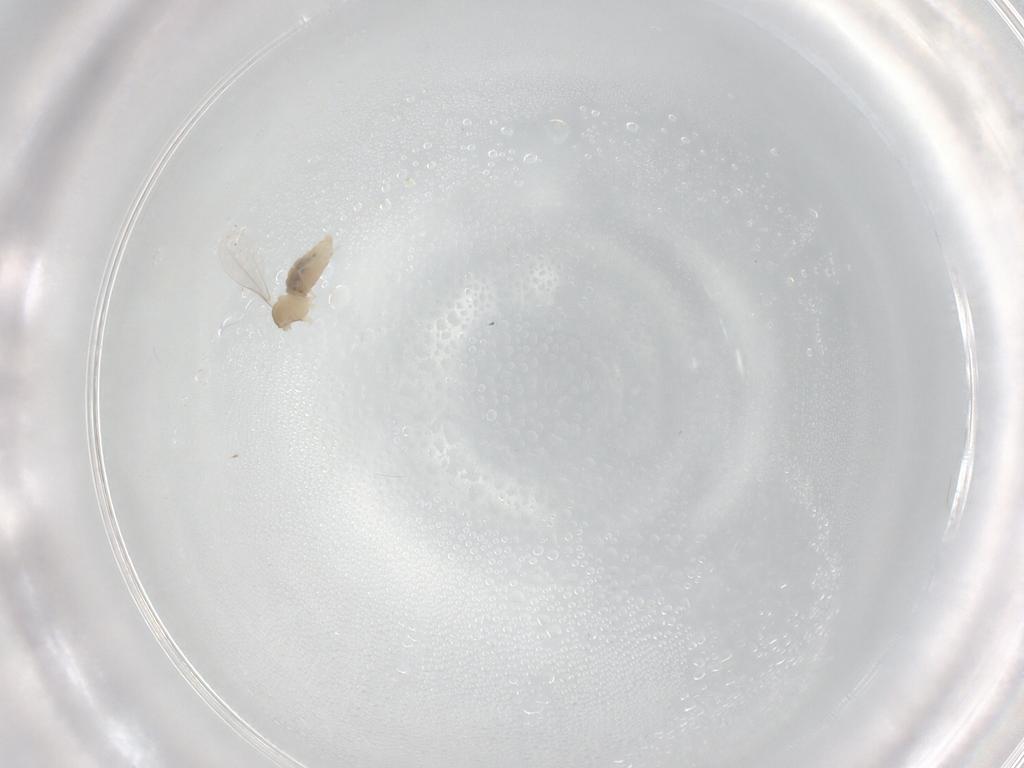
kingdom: Animalia
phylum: Arthropoda
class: Insecta
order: Diptera
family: Cecidomyiidae
